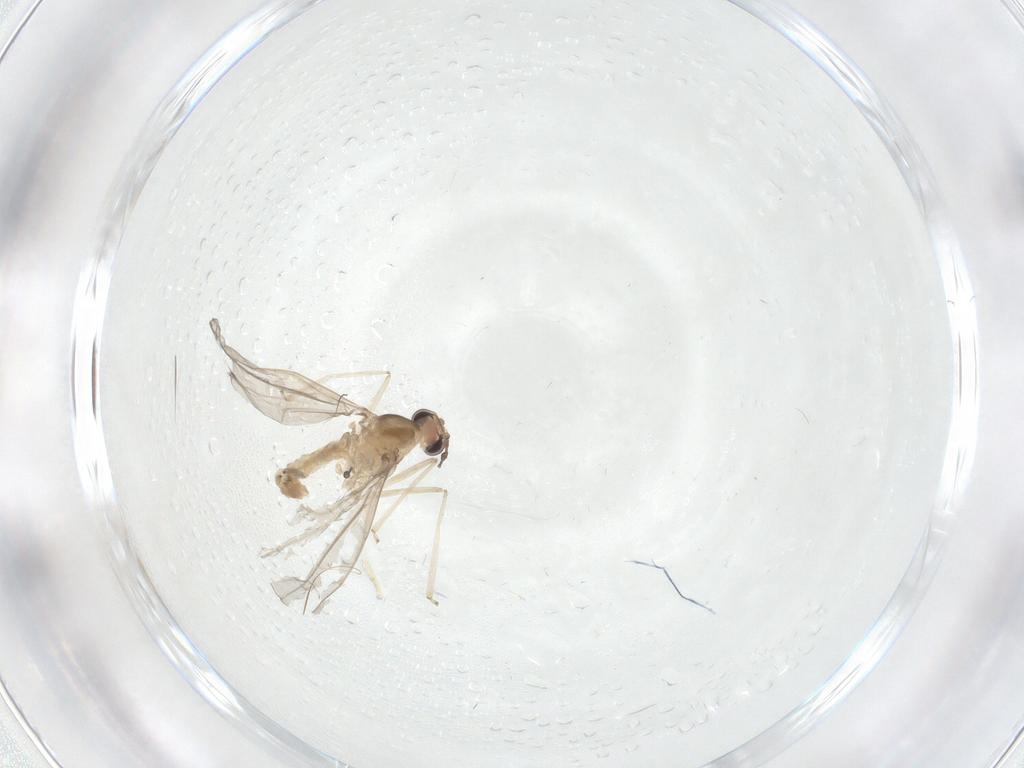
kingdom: Animalia
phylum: Arthropoda
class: Insecta
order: Diptera
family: Cecidomyiidae
